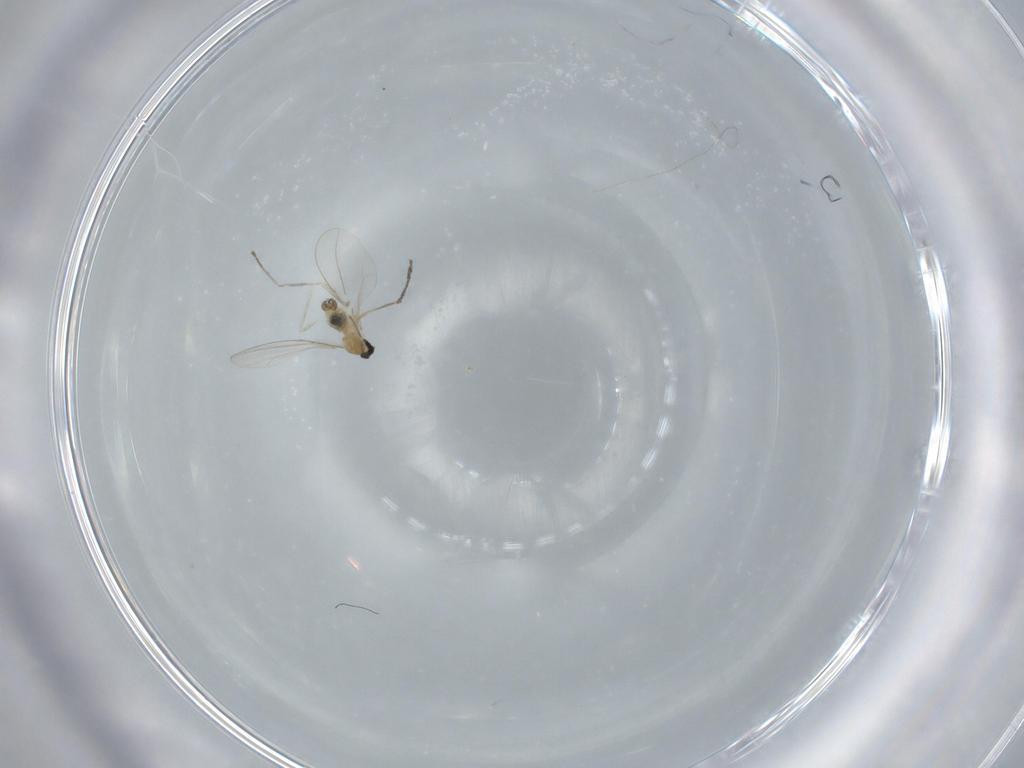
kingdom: Animalia
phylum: Arthropoda
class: Insecta
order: Diptera
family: Cecidomyiidae
